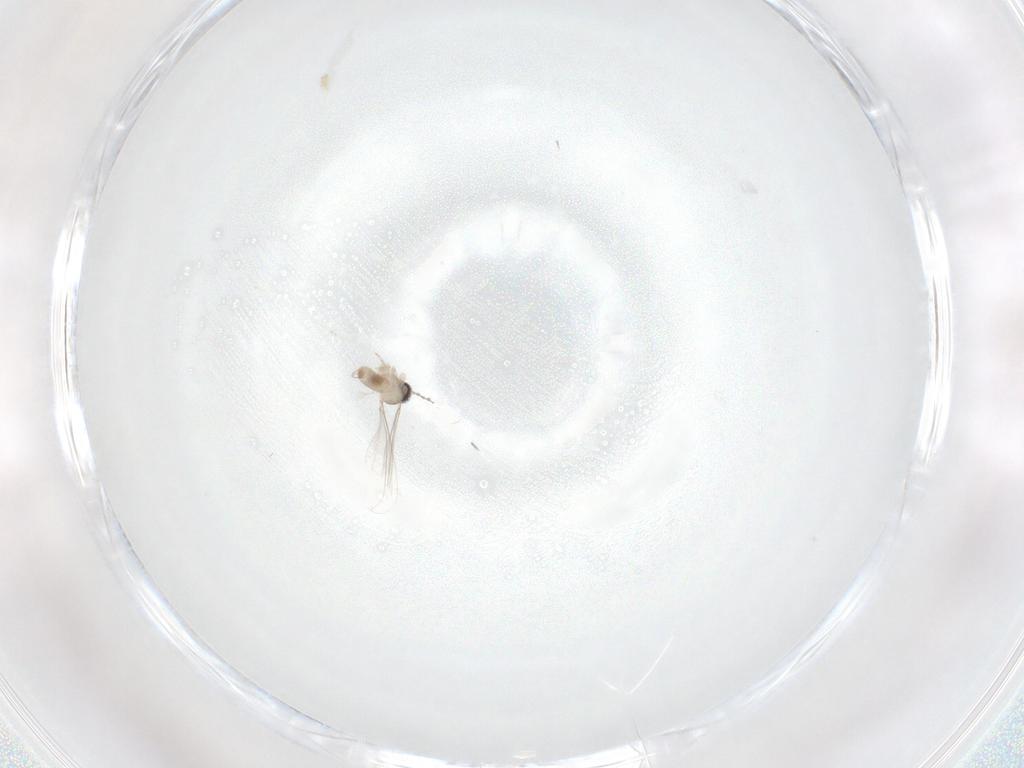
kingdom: Animalia
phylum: Arthropoda
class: Insecta
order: Diptera
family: Cecidomyiidae
